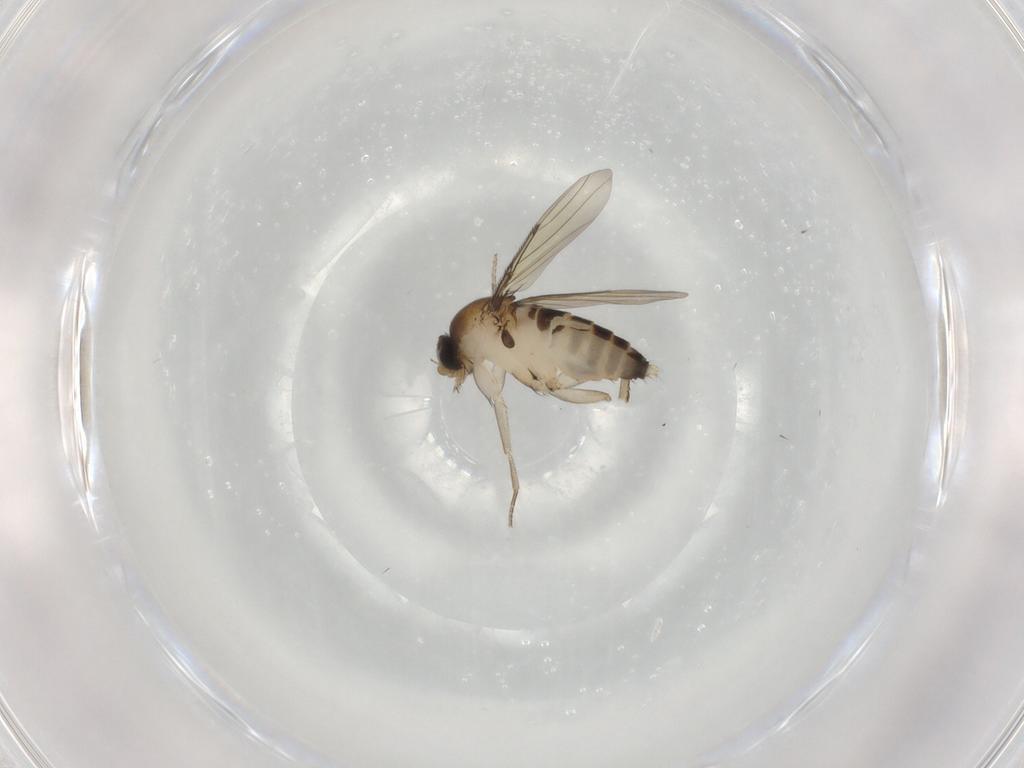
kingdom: Animalia
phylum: Arthropoda
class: Insecta
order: Diptera
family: Phoridae
